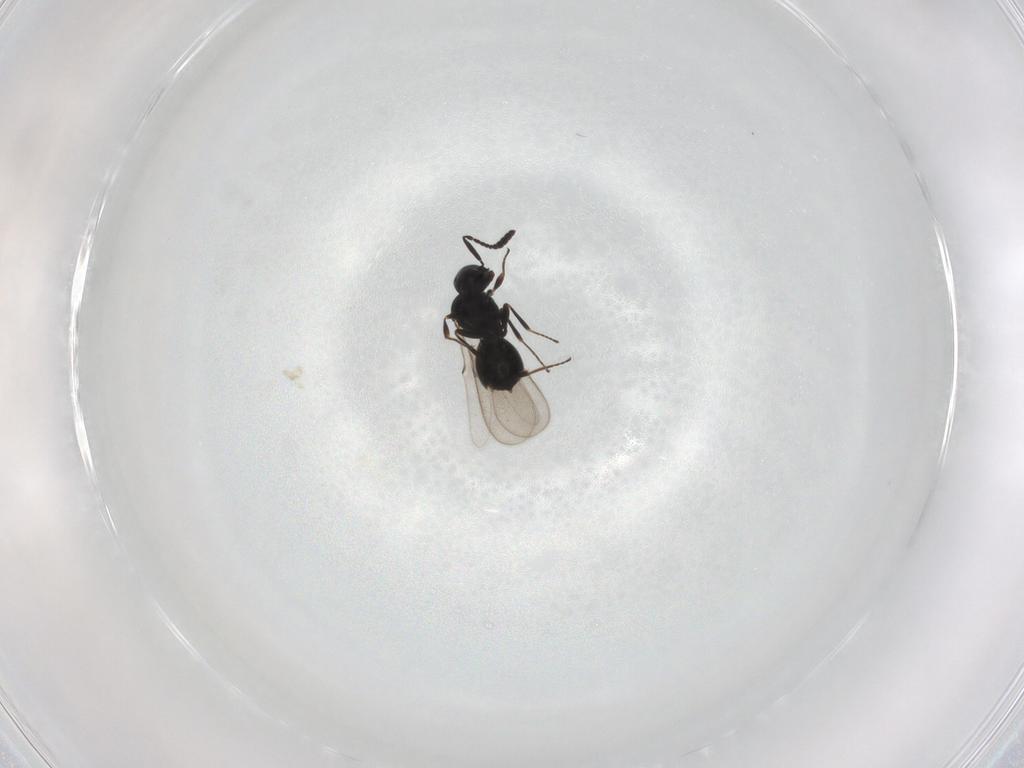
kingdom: Animalia
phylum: Arthropoda
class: Insecta
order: Hymenoptera
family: Scelionidae
